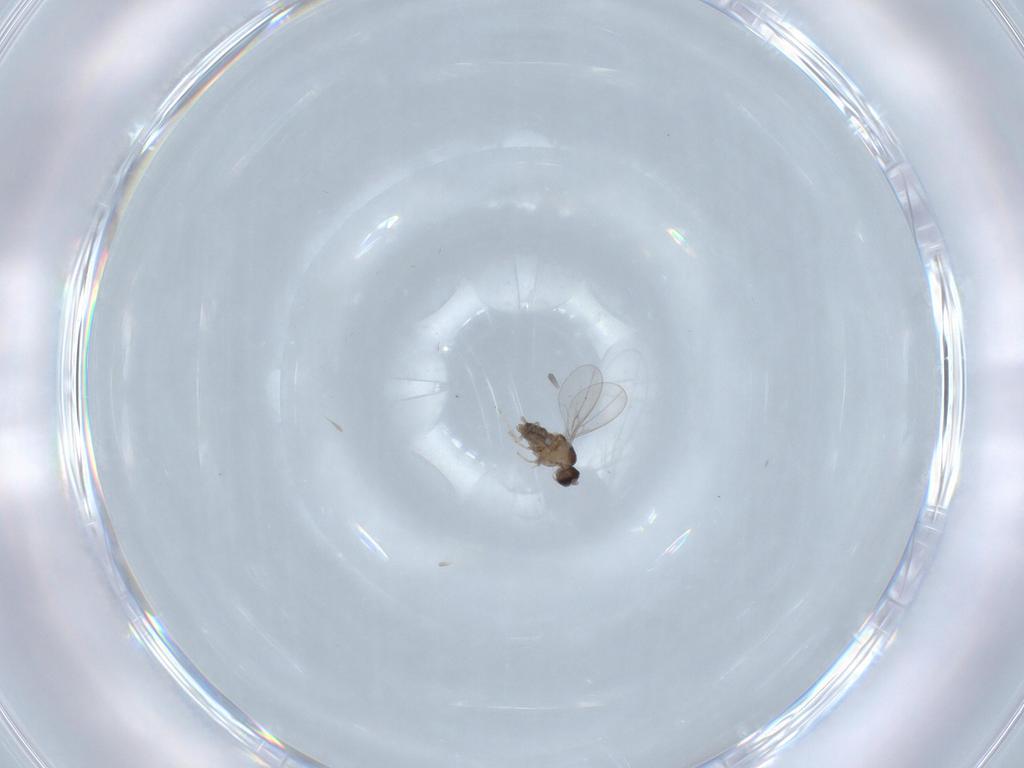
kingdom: Animalia
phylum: Arthropoda
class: Insecta
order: Diptera
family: Cecidomyiidae
